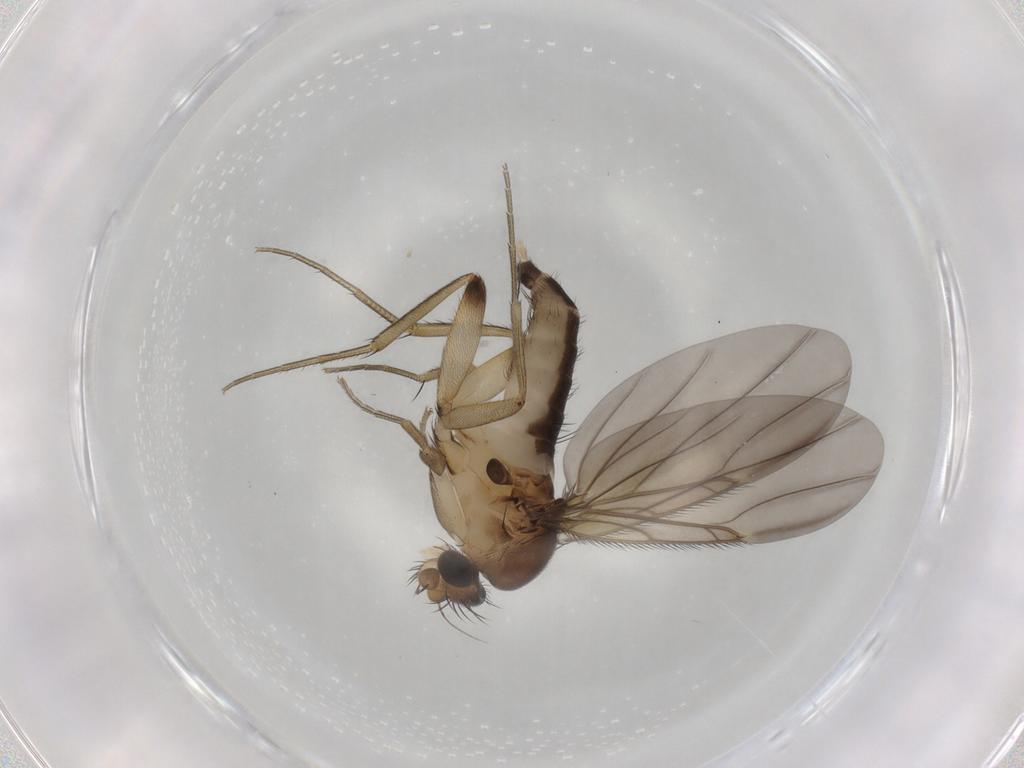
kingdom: Animalia
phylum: Arthropoda
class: Insecta
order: Diptera
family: Phoridae
